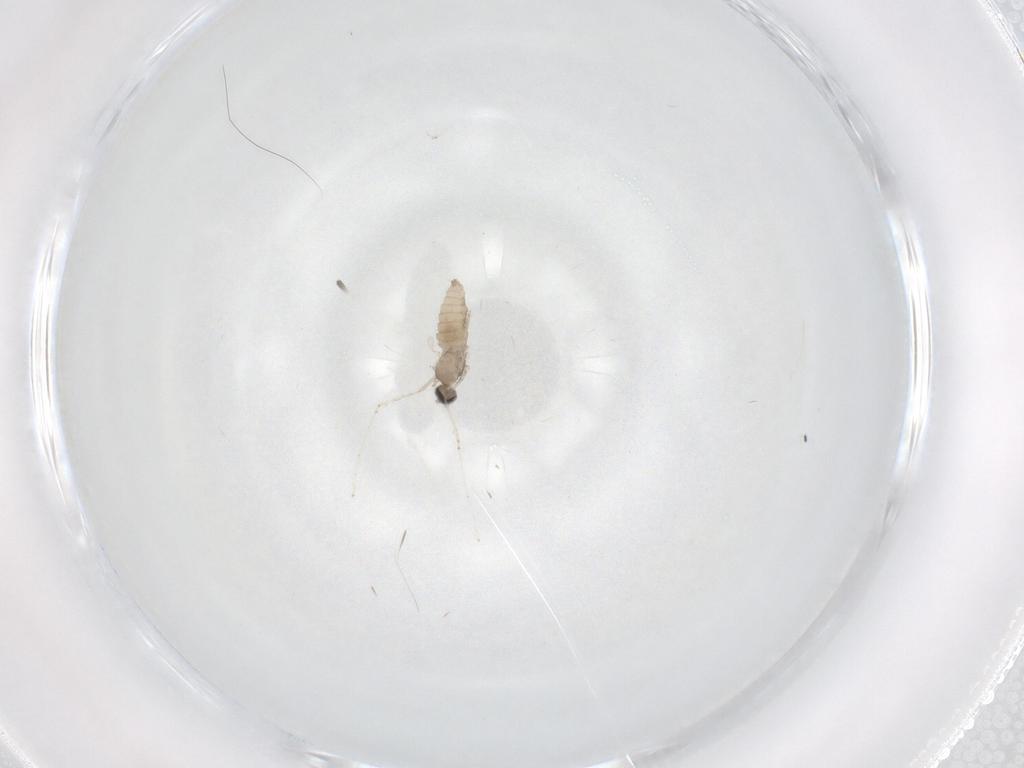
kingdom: Animalia
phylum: Arthropoda
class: Insecta
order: Diptera
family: Cecidomyiidae
